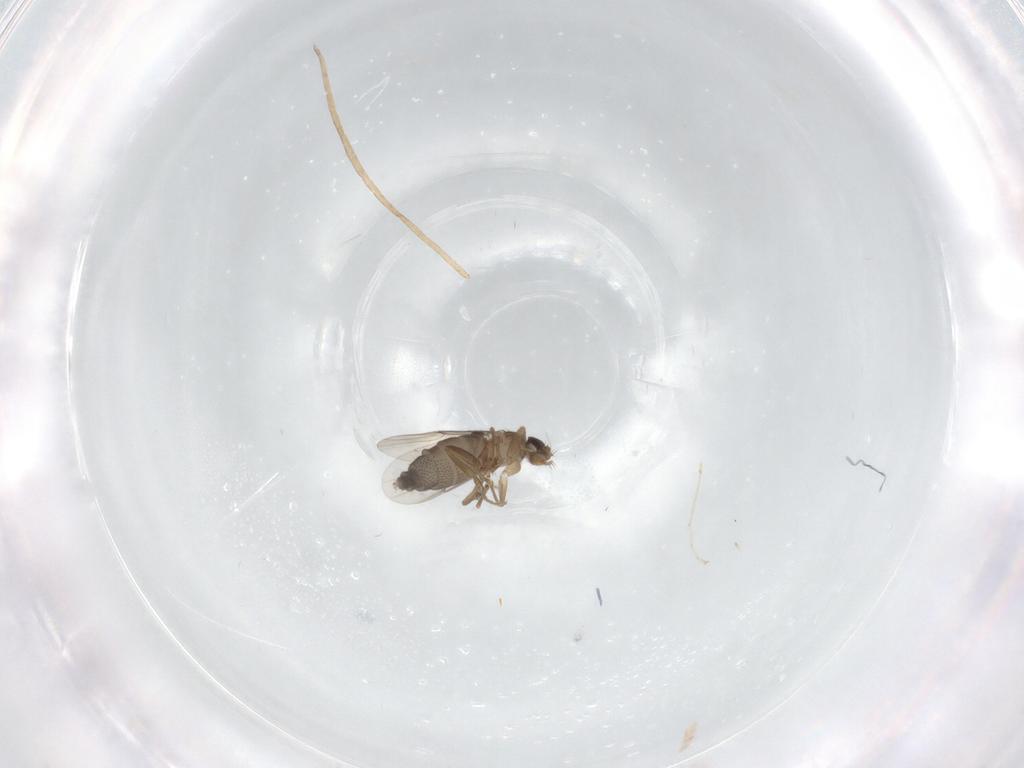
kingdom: Animalia
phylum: Arthropoda
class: Insecta
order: Diptera
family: Phoridae
